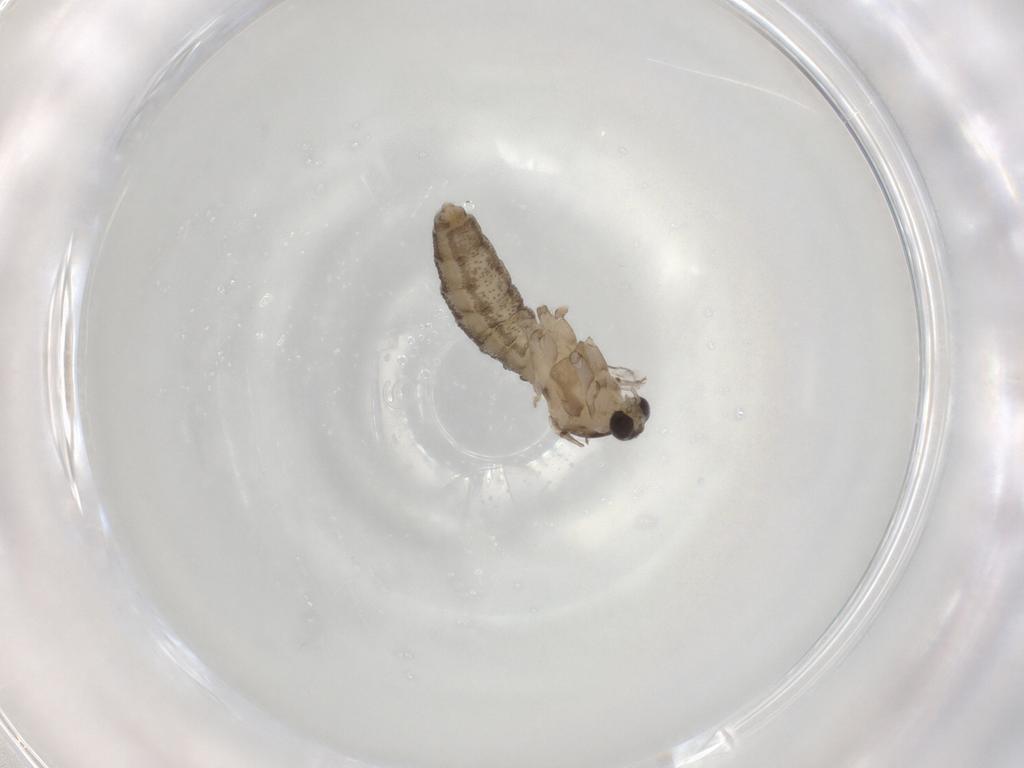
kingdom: Animalia
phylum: Arthropoda
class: Insecta
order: Diptera
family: Cecidomyiidae
